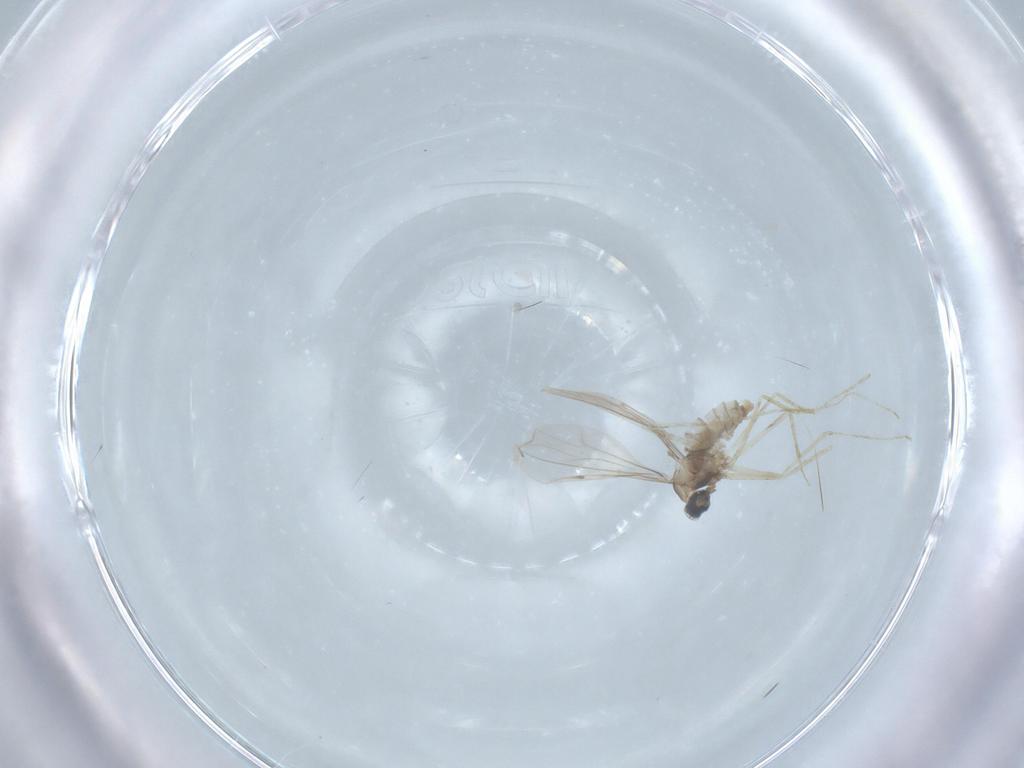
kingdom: Animalia
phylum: Arthropoda
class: Insecta
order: Diptera
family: Cecidomyiidae
